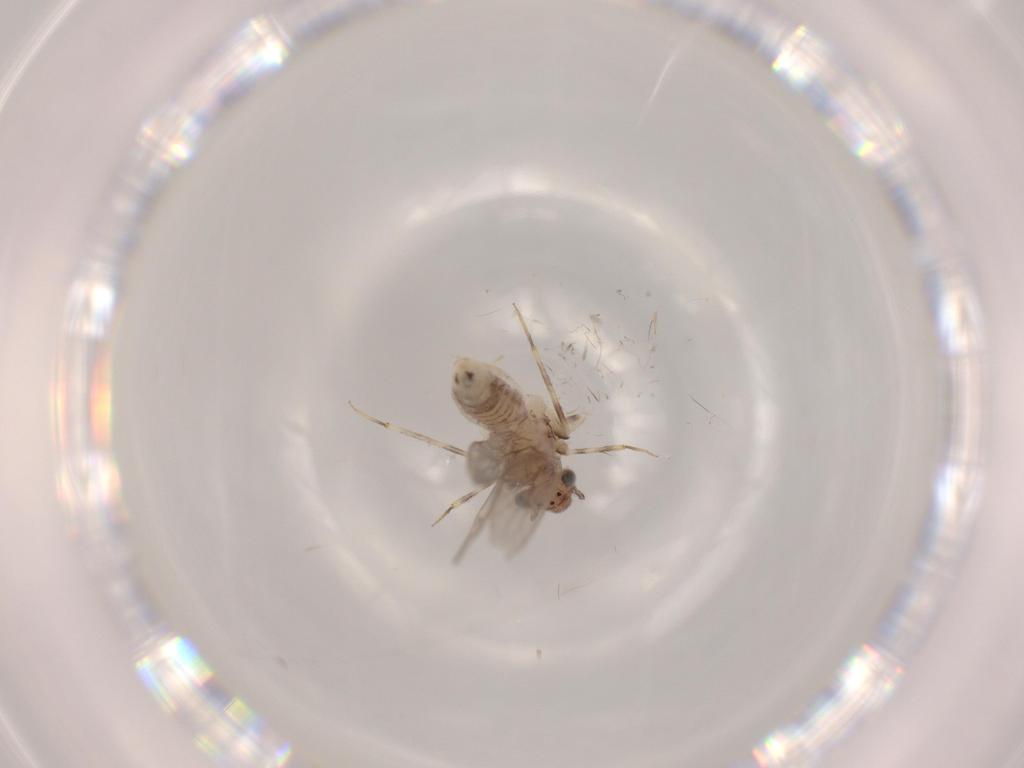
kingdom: Animalia
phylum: Arthropoda
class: Insecta
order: Psocodea
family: Lepidopsocidae
